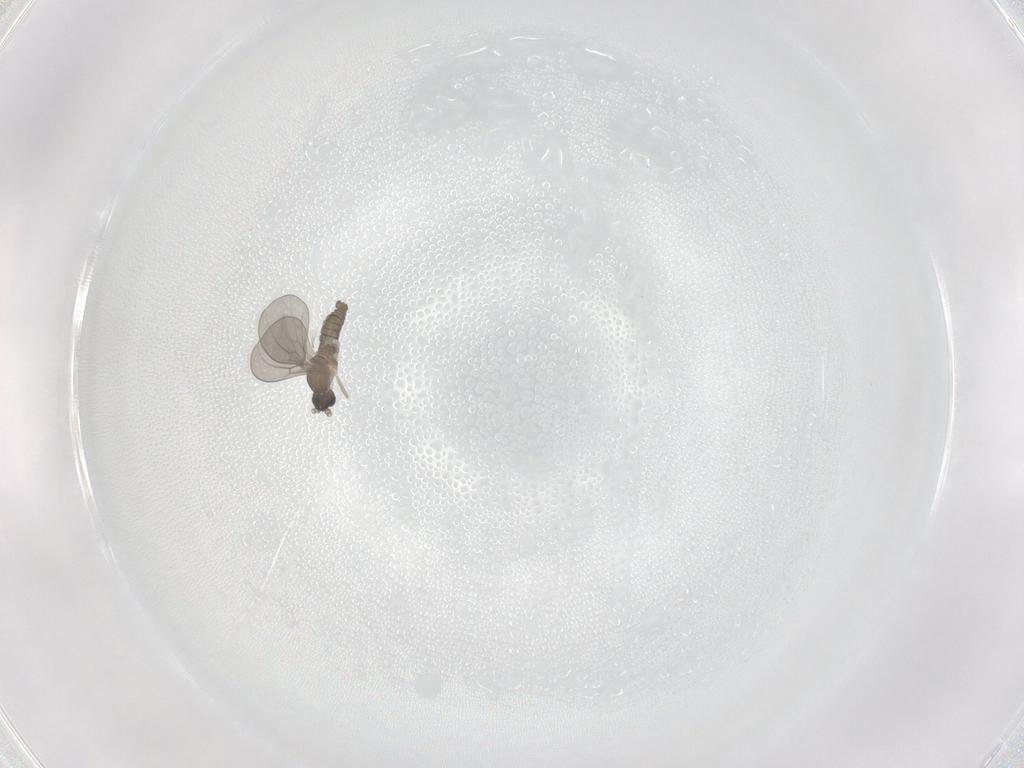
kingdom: Animalia
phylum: Arthropoda
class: Insecta
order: Diptera
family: Cecidomyiidae
